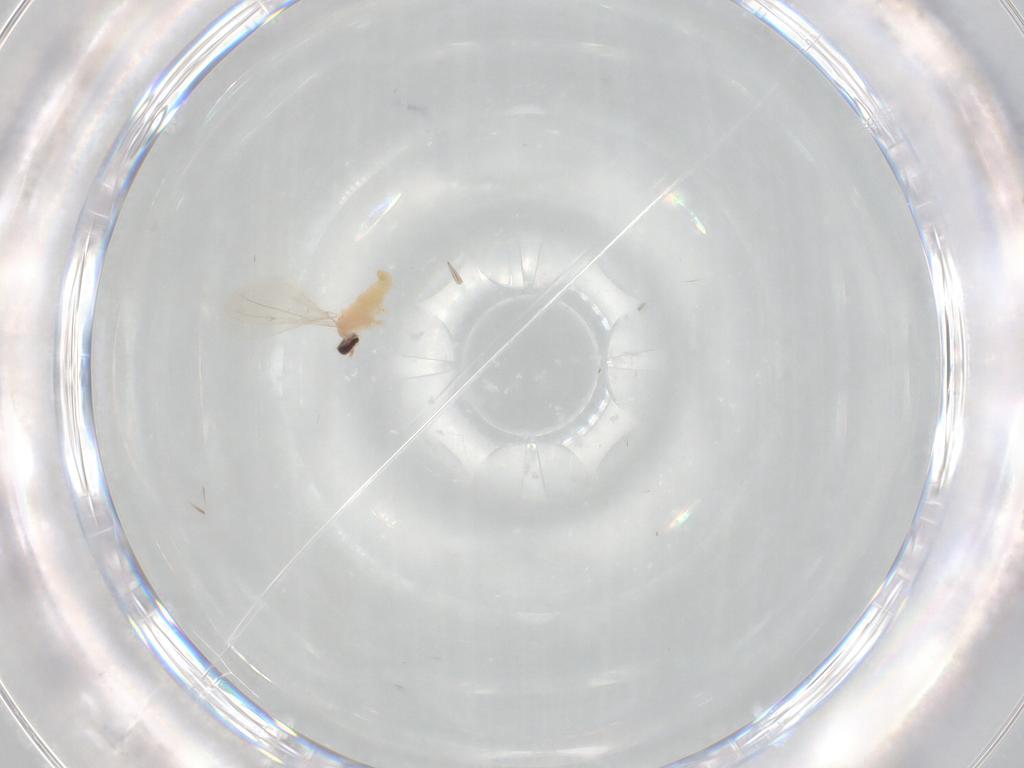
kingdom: Animalia
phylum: Arthropoda
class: Insecta
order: Diptera
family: Cecidomyiidae
